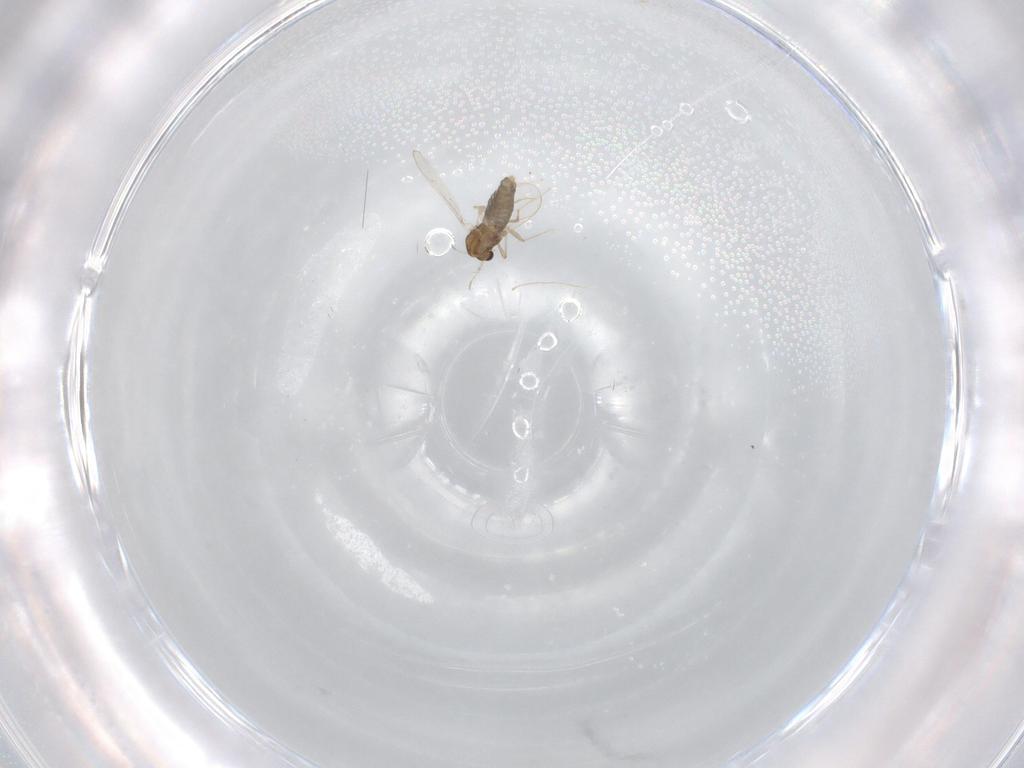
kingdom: Animalia
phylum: Arthropoda
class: Insecta
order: Diptera
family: Chironomidae
